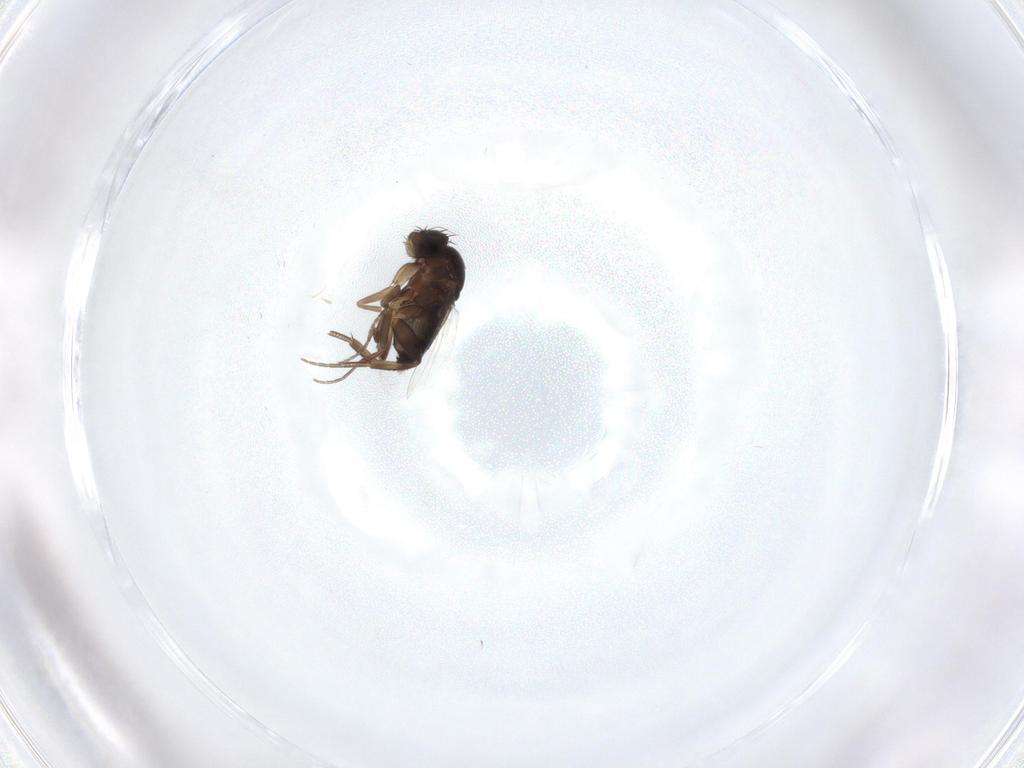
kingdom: Animalia
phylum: Arthropoda
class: Insecta
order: Diptera
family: Phoridae
